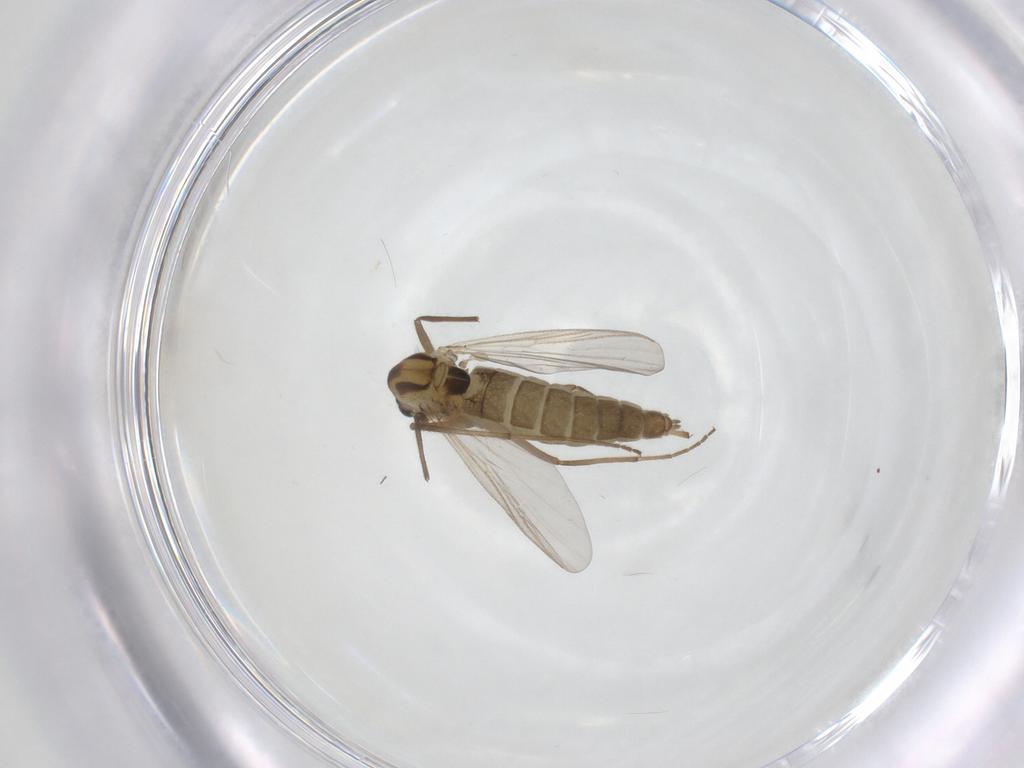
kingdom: Animalia
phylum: Arthropoda
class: Insecta
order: Diptera
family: Chironomidae
